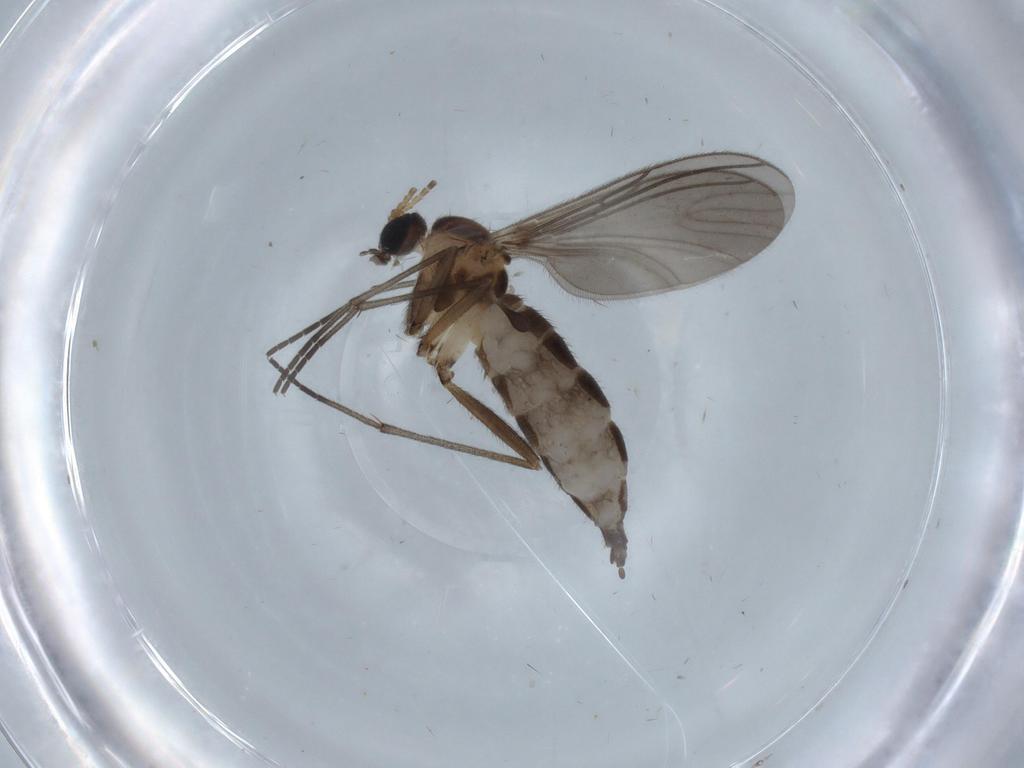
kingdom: Animalia
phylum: Arthropoda
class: Insecta
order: Diptera
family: Sciaridae
